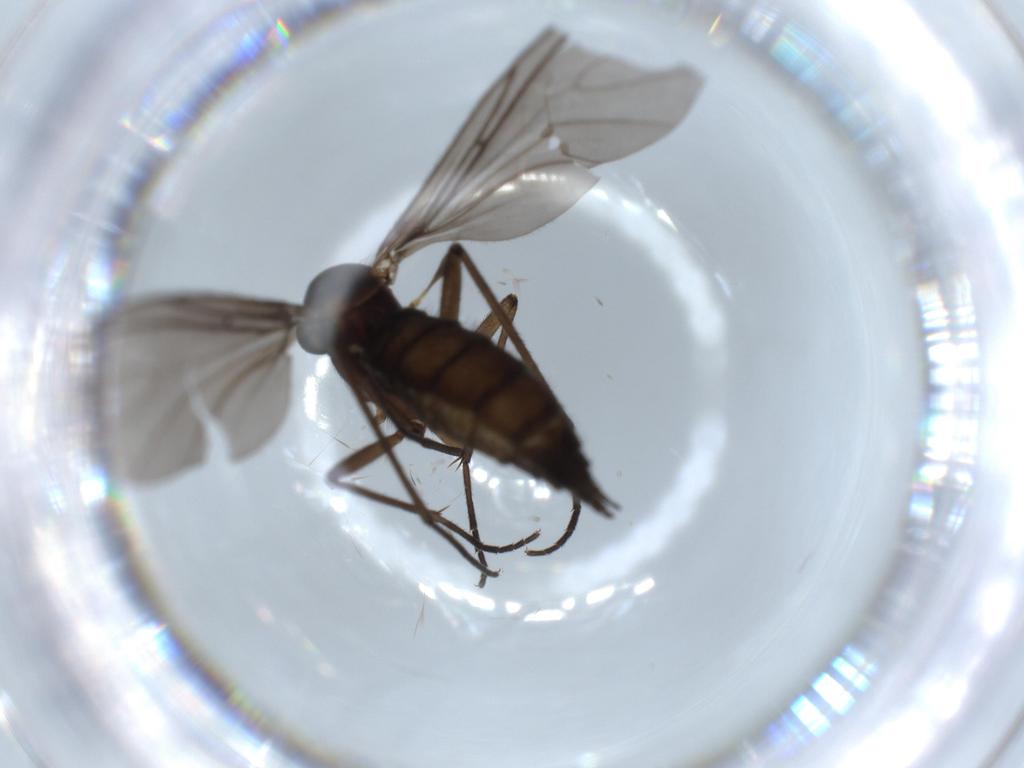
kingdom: Animalia
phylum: Arthropoda
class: Insecta
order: Diptera
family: Sciaridae
